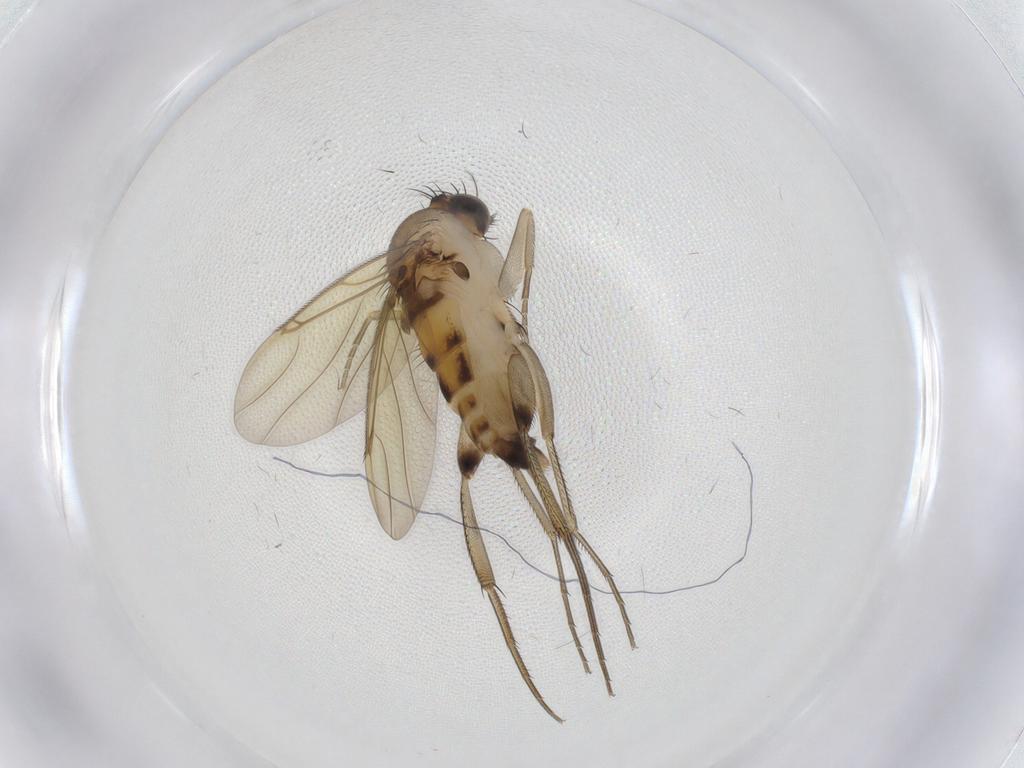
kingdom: Animalia
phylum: Arthropoda
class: Insecta
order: Diptera
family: Phoridae
